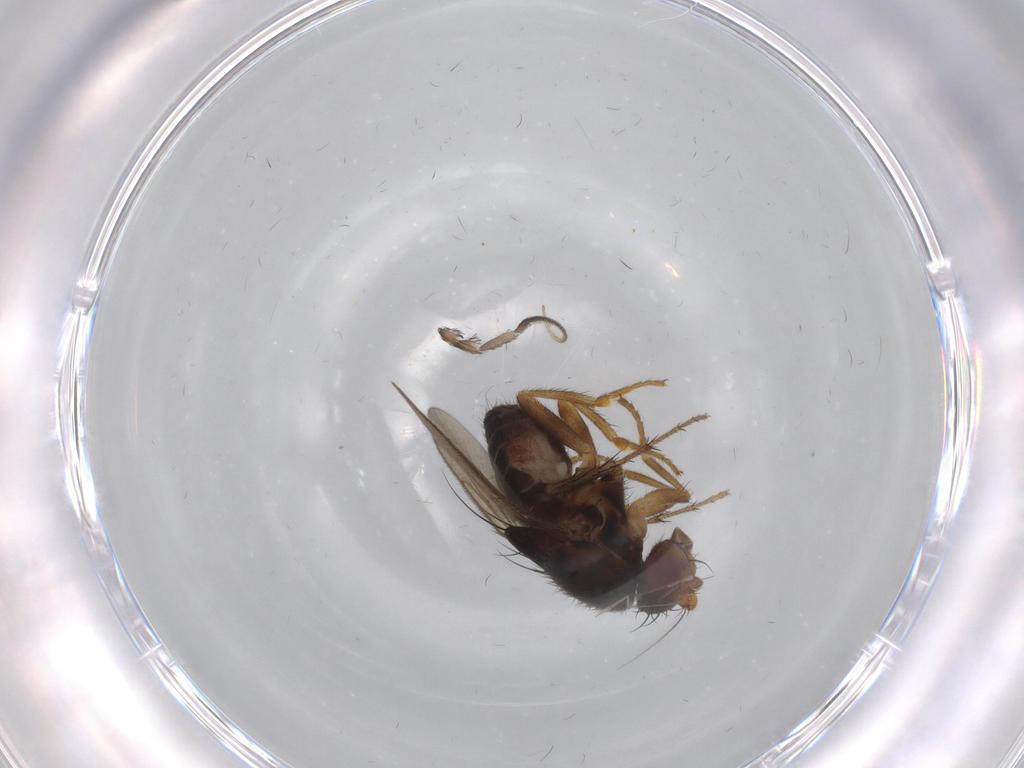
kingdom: Animalia
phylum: Arthropoda
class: Insecta
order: Diptera
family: Sphaeroceridae
